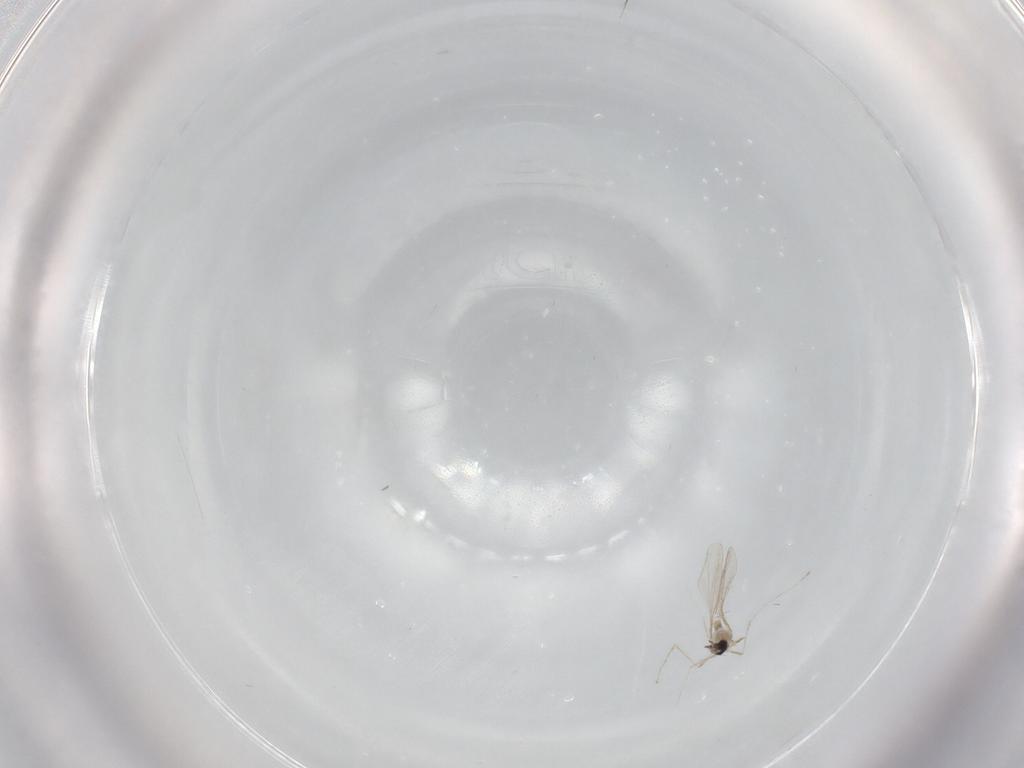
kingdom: Animalia
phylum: Arthropoda
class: Insecta
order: Diptera
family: Cecidomyiidae
